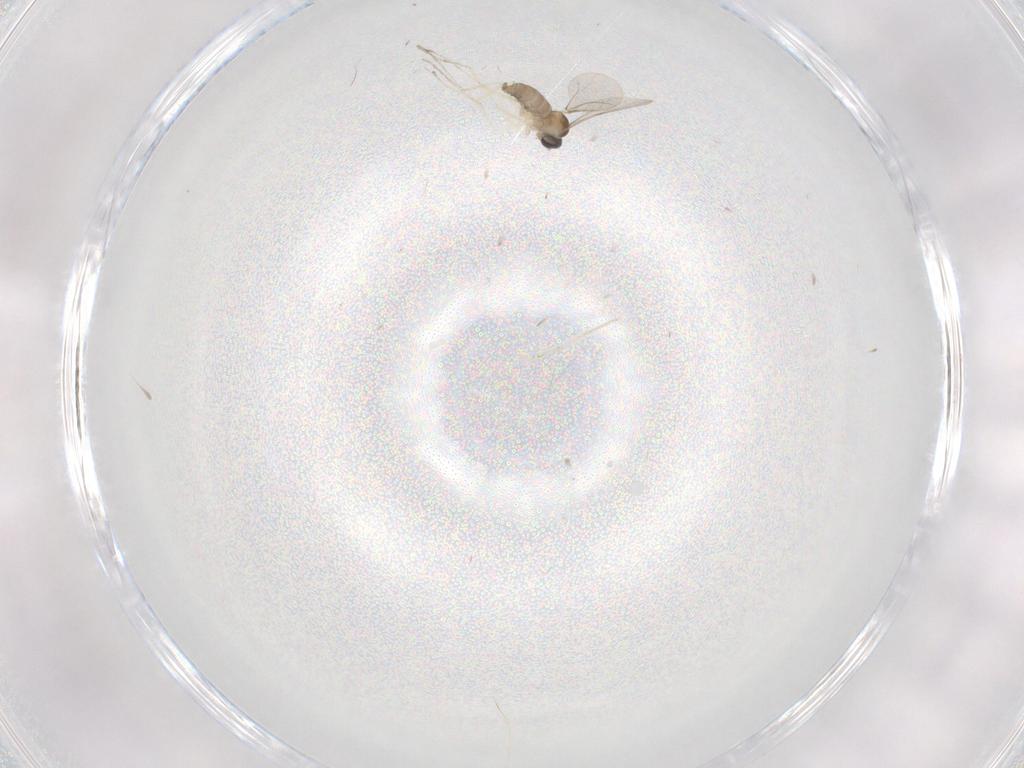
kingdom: Animalia
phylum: Arthropoda
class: Insecta
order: Diptera
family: Cecidomyiidae
